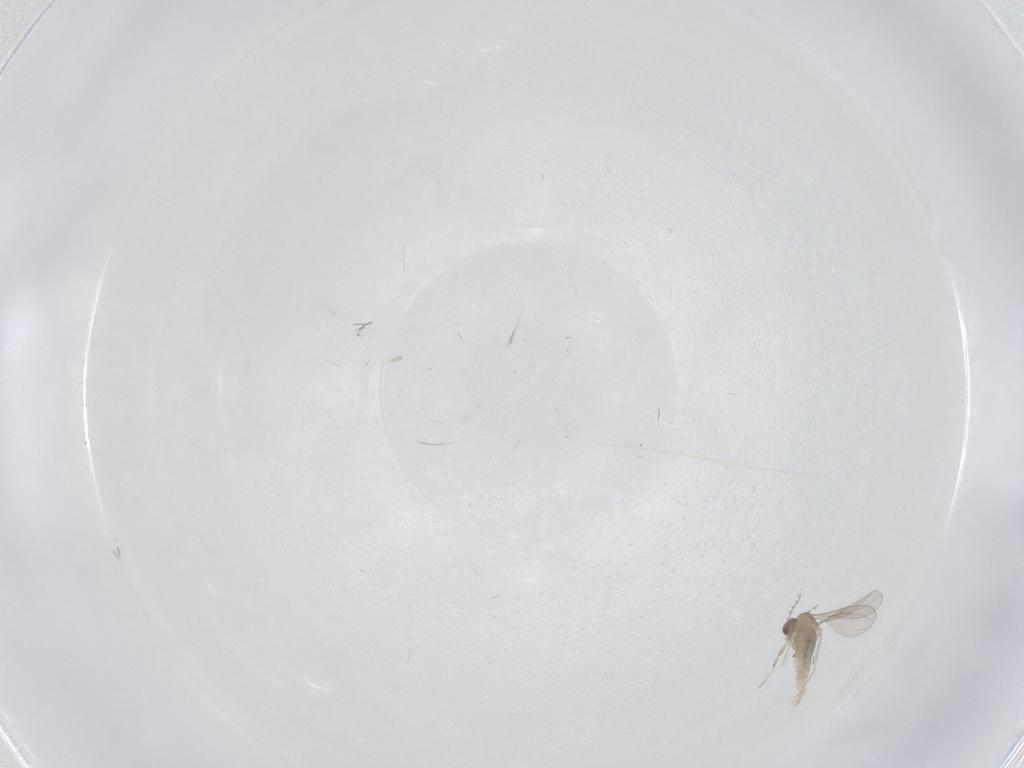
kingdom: Animalia
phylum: Arthropoda
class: Insecta
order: Diptera
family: Cecidomyiidae
